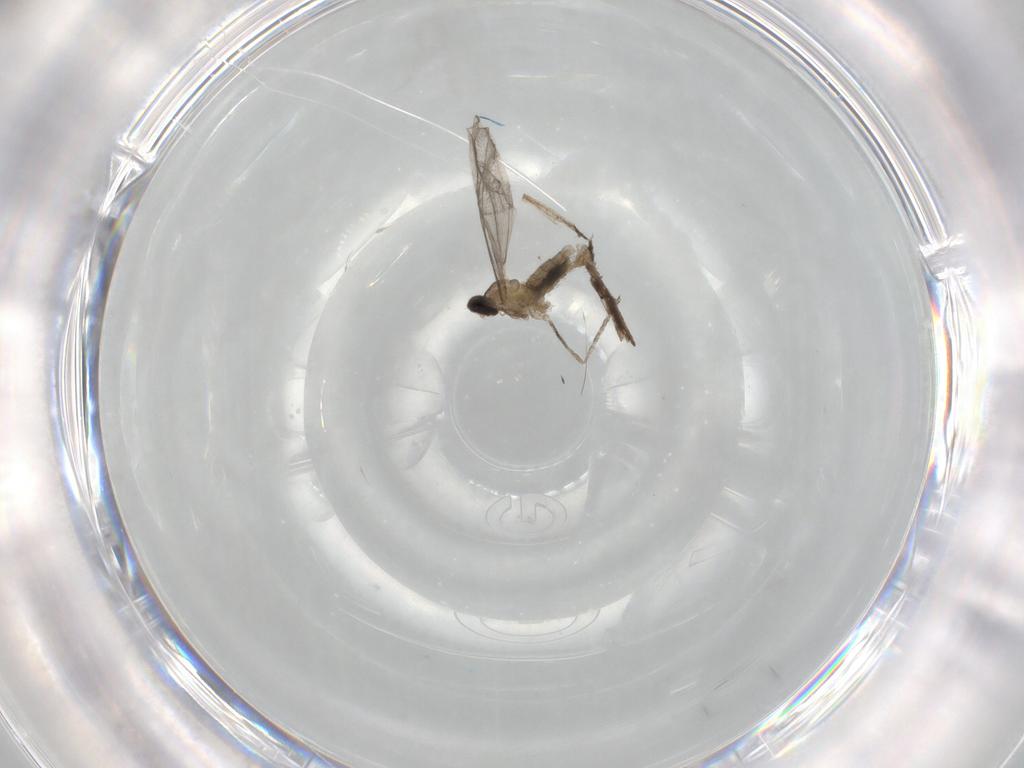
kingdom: Animalia
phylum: Arthropoda
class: Insecta
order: Diptera
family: Cecidomyiidae
